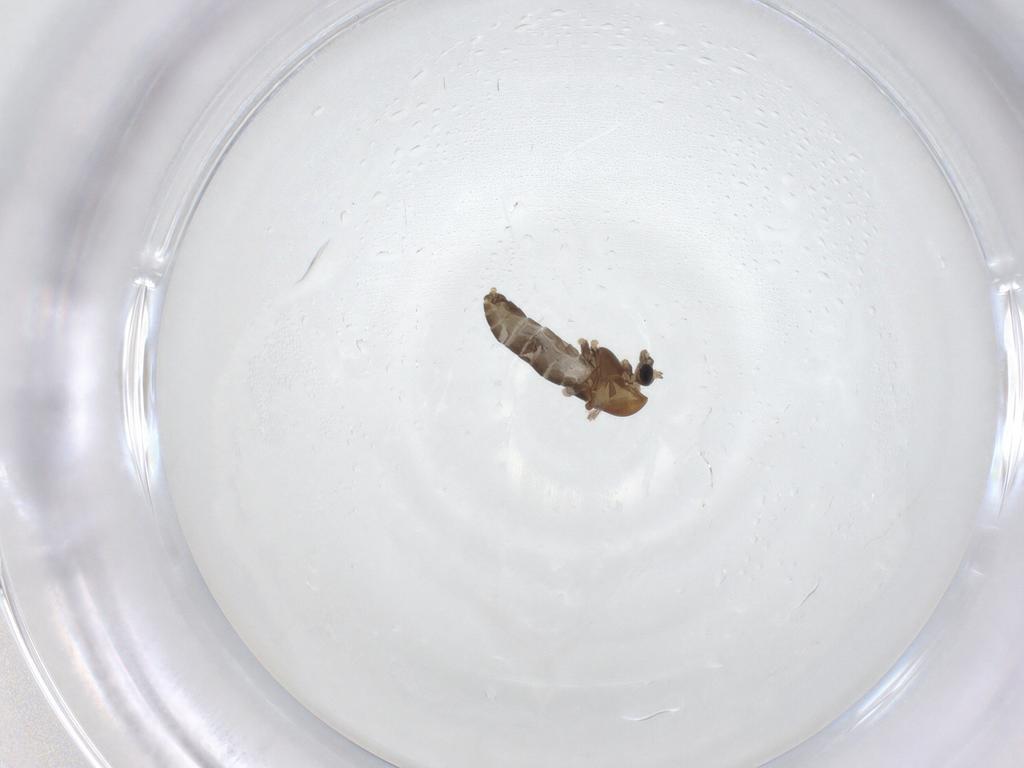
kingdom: Animalia
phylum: Arthropoda
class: Insecta
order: Diptera
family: Chironomidae
